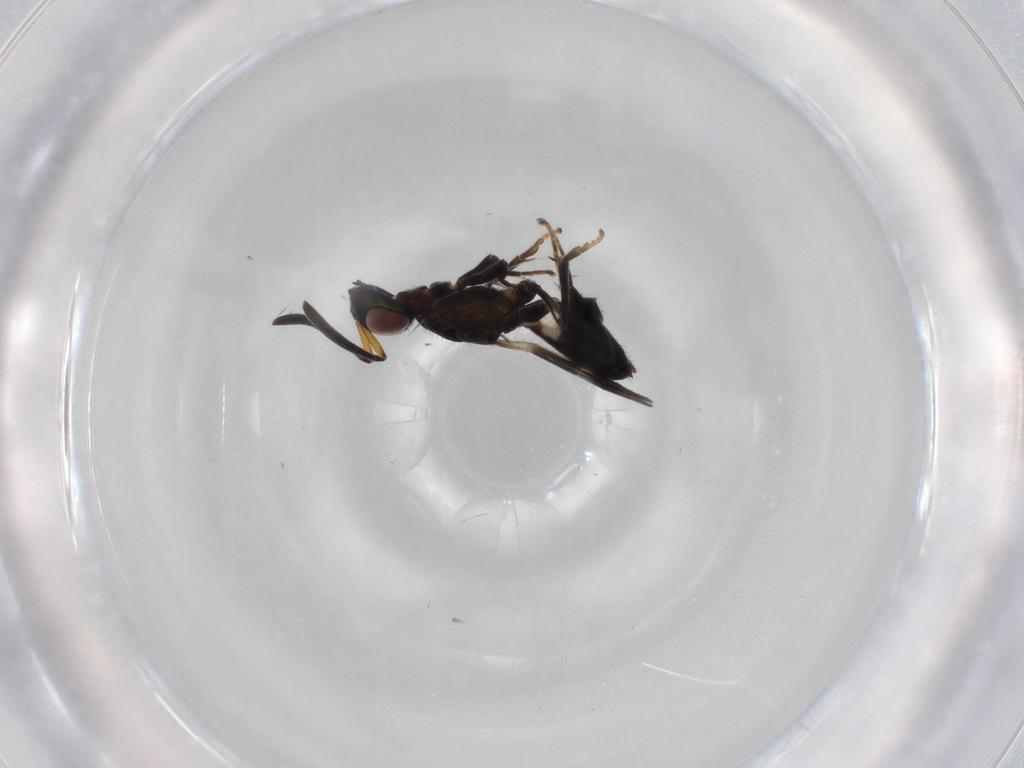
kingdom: Animalia
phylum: Arthropoda
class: Insecta
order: Hymenoptera
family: Eupelmidae
